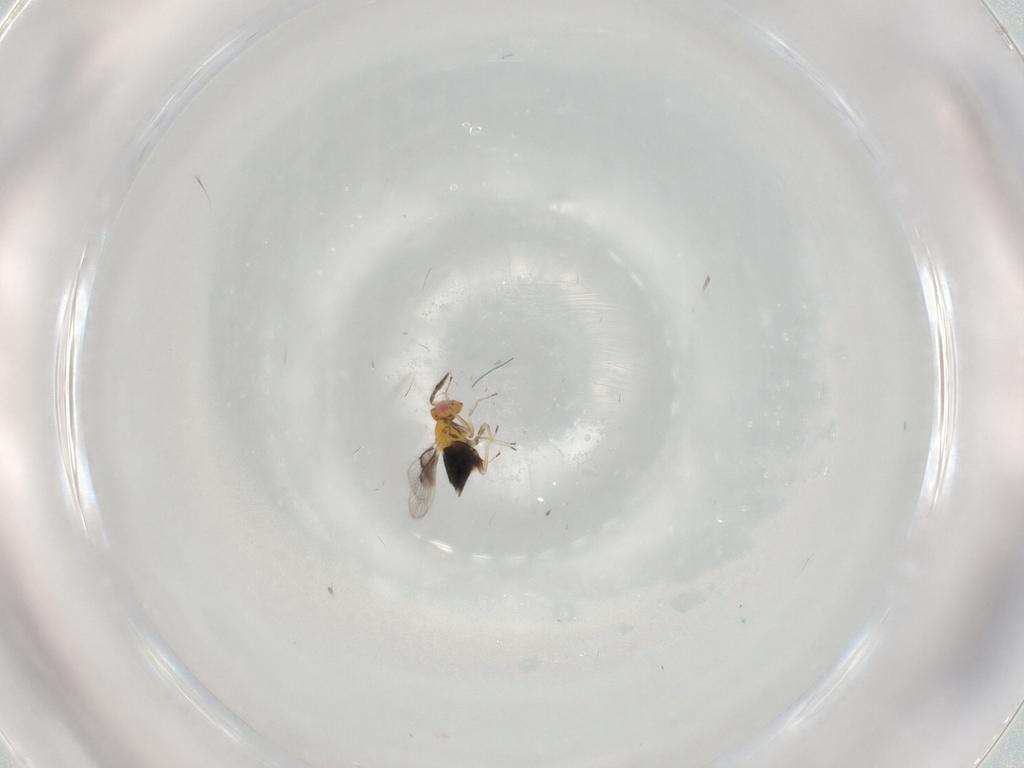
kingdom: Animalia
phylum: Arthropoda
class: Insecta
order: Hymenoptera
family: Trichogrammatidae
